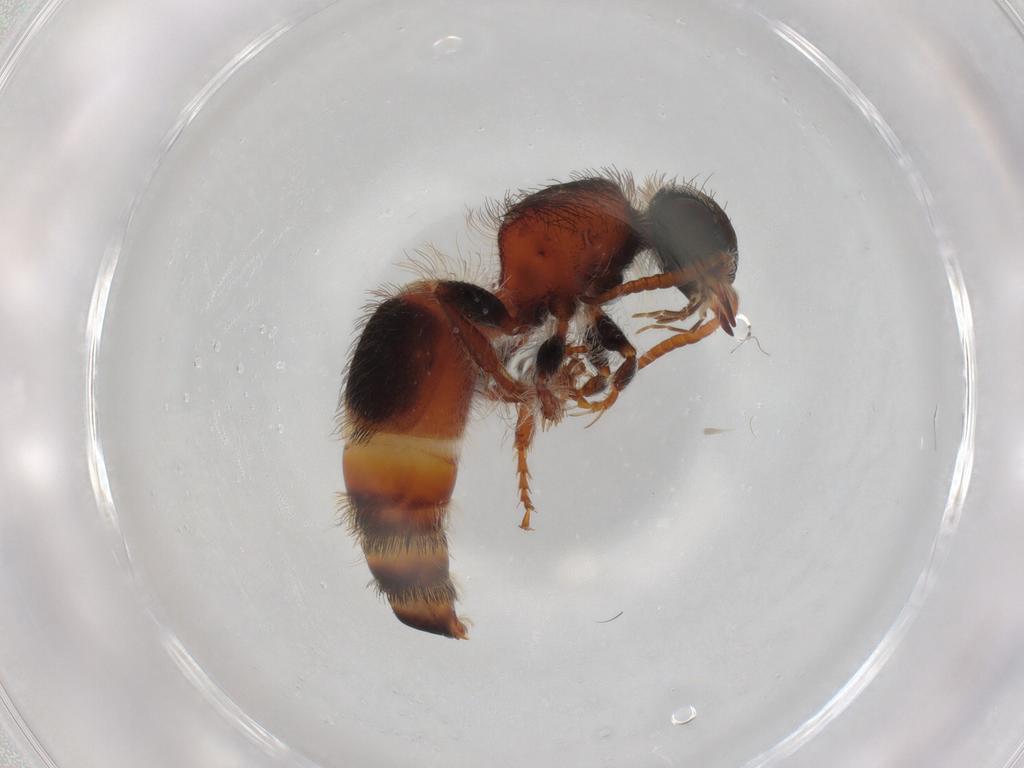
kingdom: Animalia
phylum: Arthropoda
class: Insecta
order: Hymenoptera
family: Mutillidae
